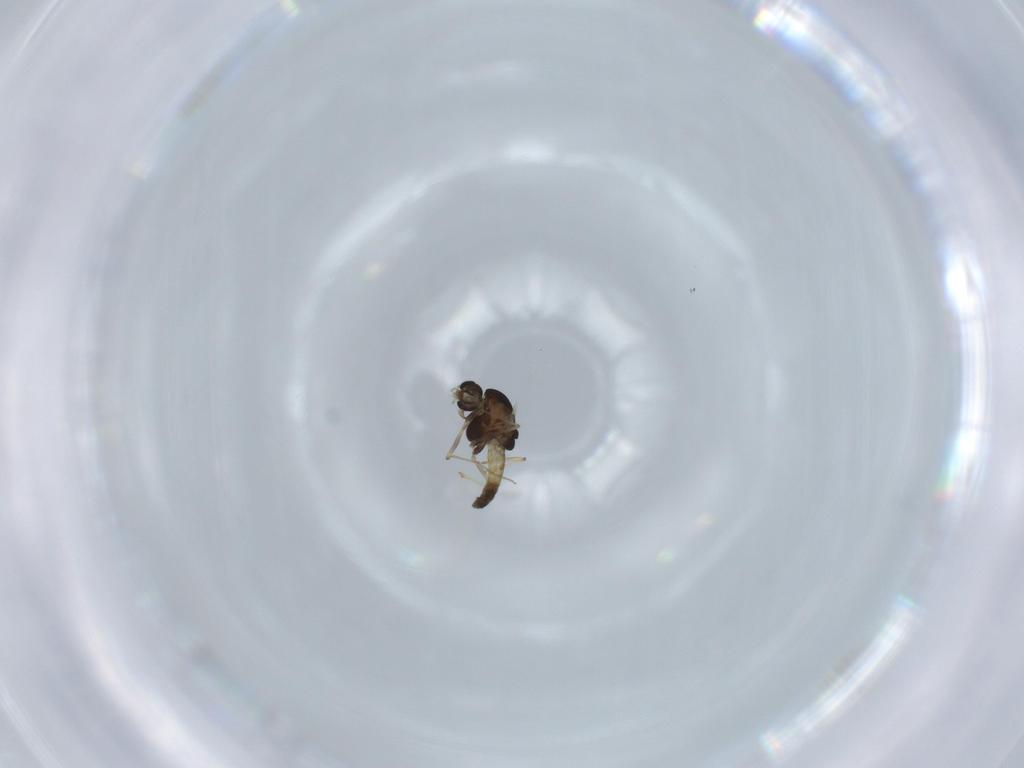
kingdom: Animalia
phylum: Arthropoda
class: Insecta
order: Diptera
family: Chironomidae
